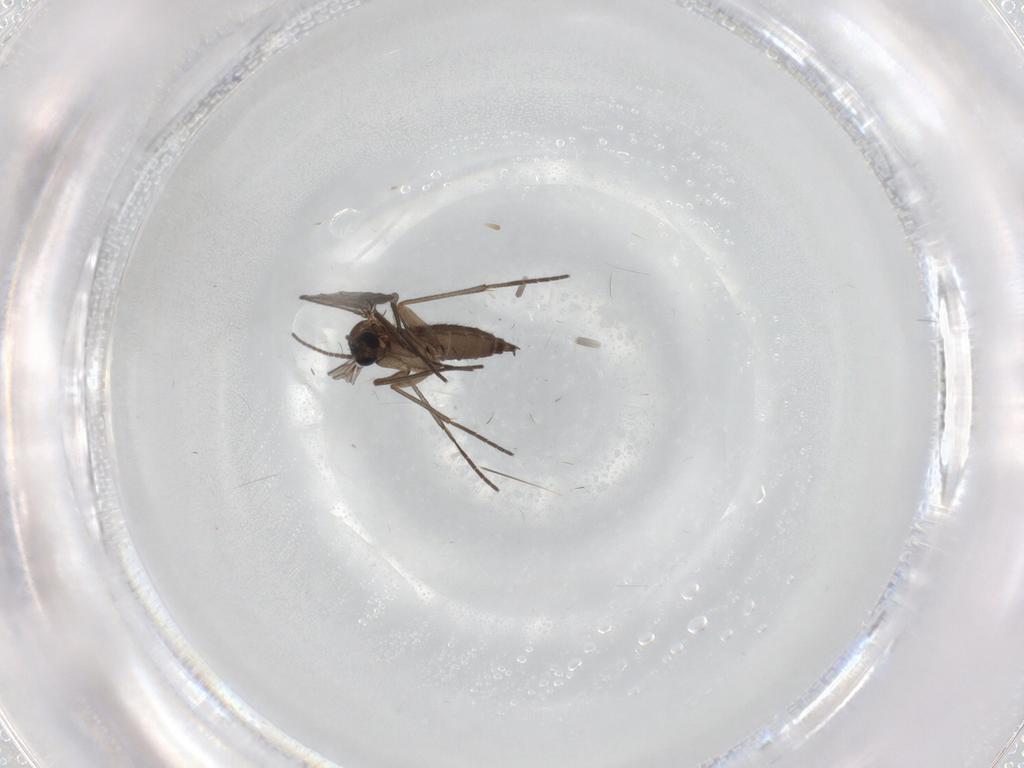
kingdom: Animalia
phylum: Arthropoda
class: Insecta
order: Diptera
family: Sciaridae
